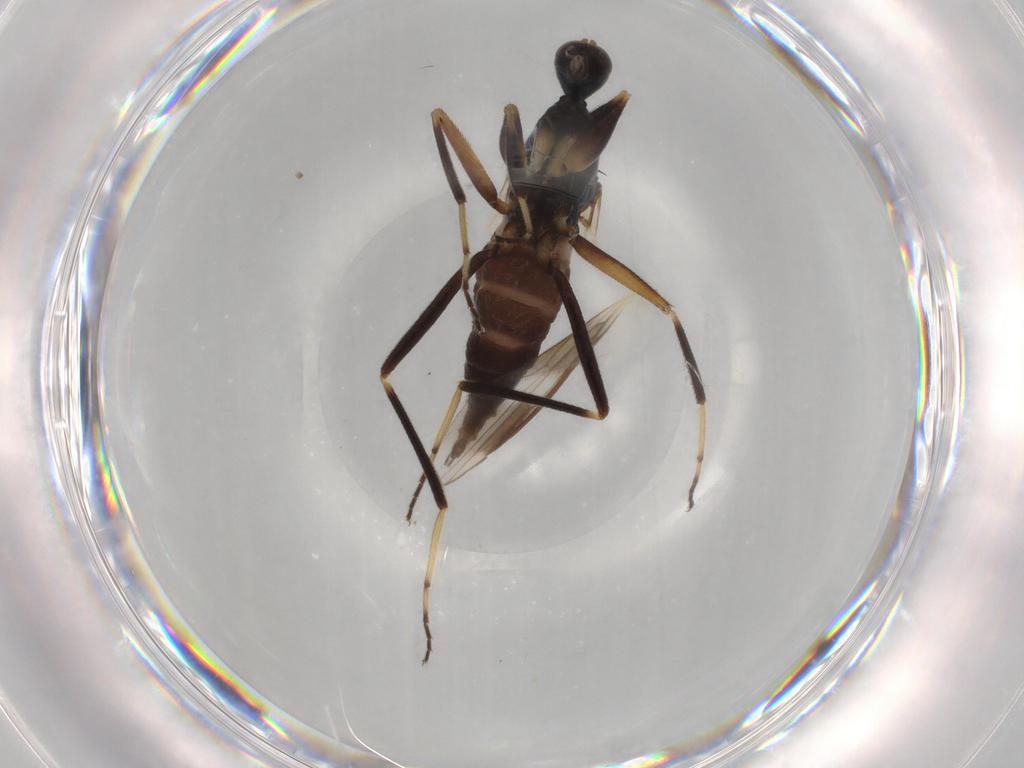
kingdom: Animalia
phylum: Arthropoda
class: Insecta
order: Diptera
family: Hybotidae
